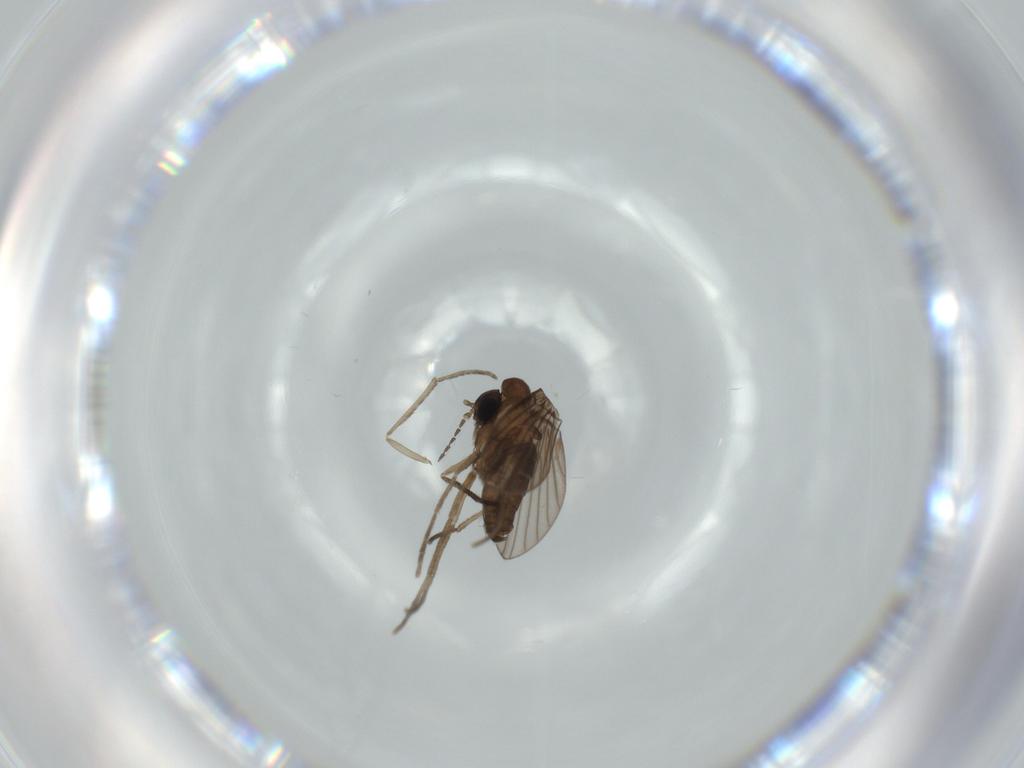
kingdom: Animalia
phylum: Arthropoda
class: Insecta
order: Diptera
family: Psychodidae
